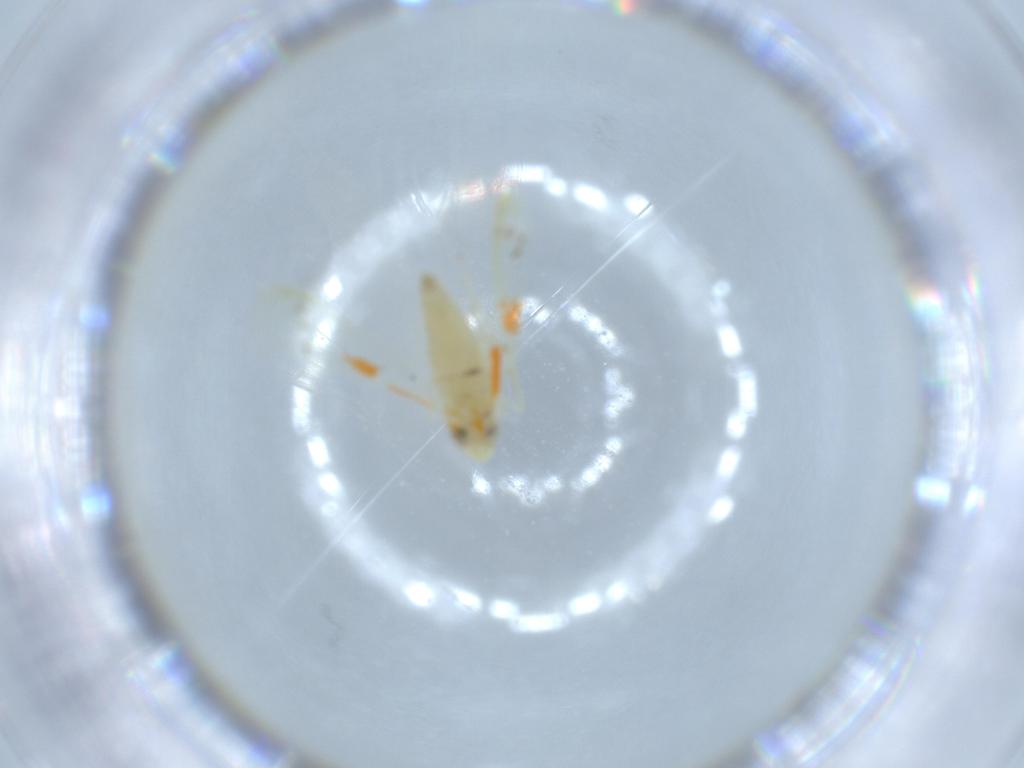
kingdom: Animalia
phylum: Arthropoda
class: Insecta
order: Hemiptera
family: Cicadellidae
